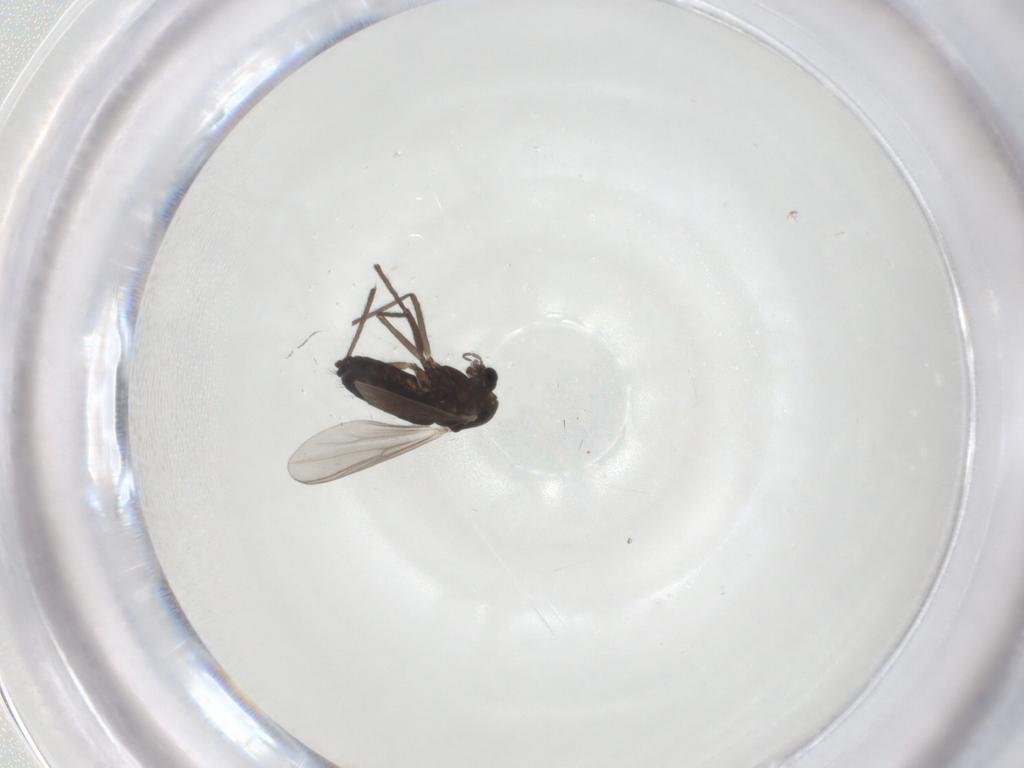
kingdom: Animalia
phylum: Arthropoda
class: Insecta
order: Diptera
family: Chironomidae
